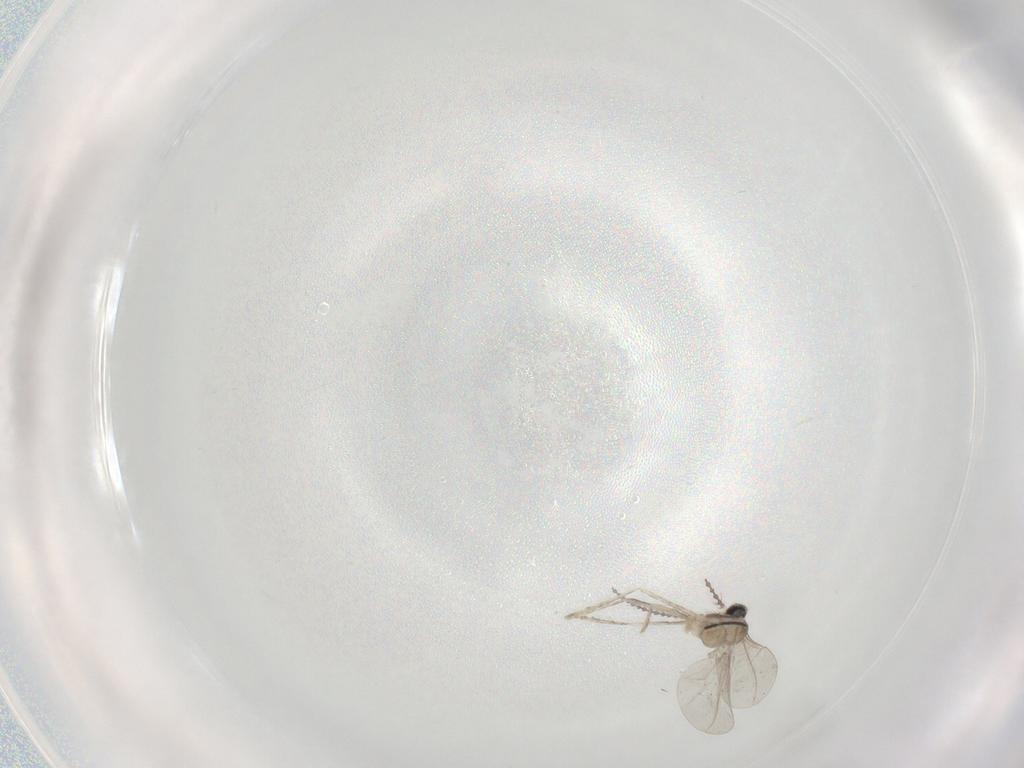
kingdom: Animalia
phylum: Arthropoda
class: Insecta
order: Diptera
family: Cecidomyiidae
